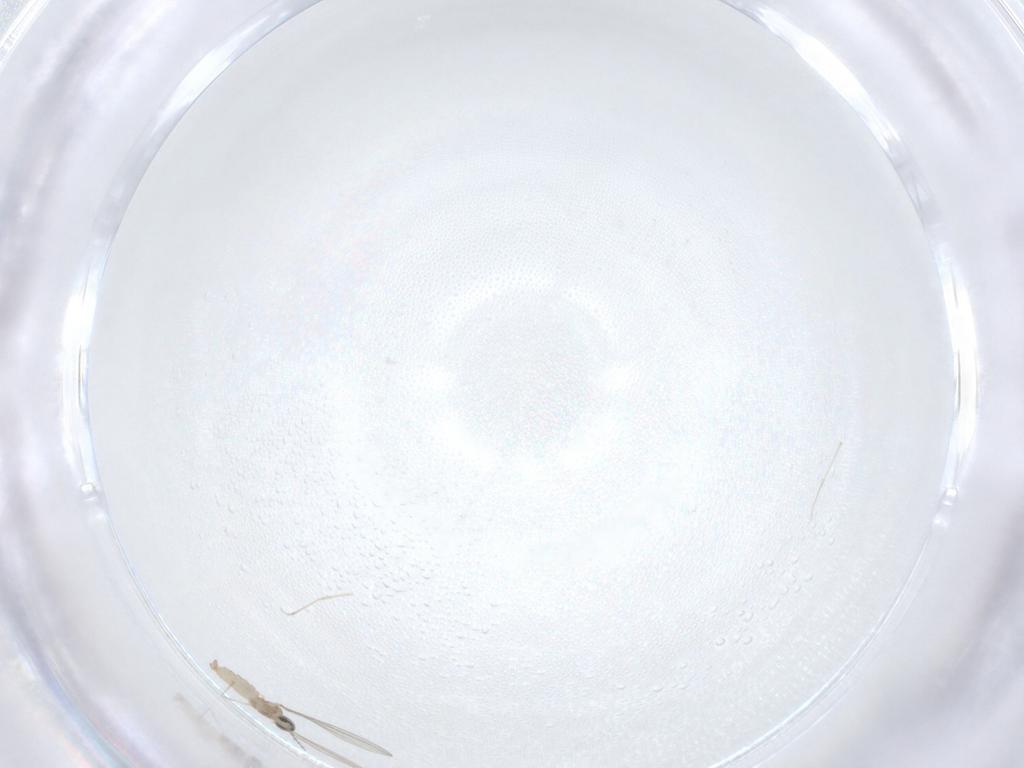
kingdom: Animalia
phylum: Arthropoda
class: Insecta
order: Diptera
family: Cecidomyiidae
